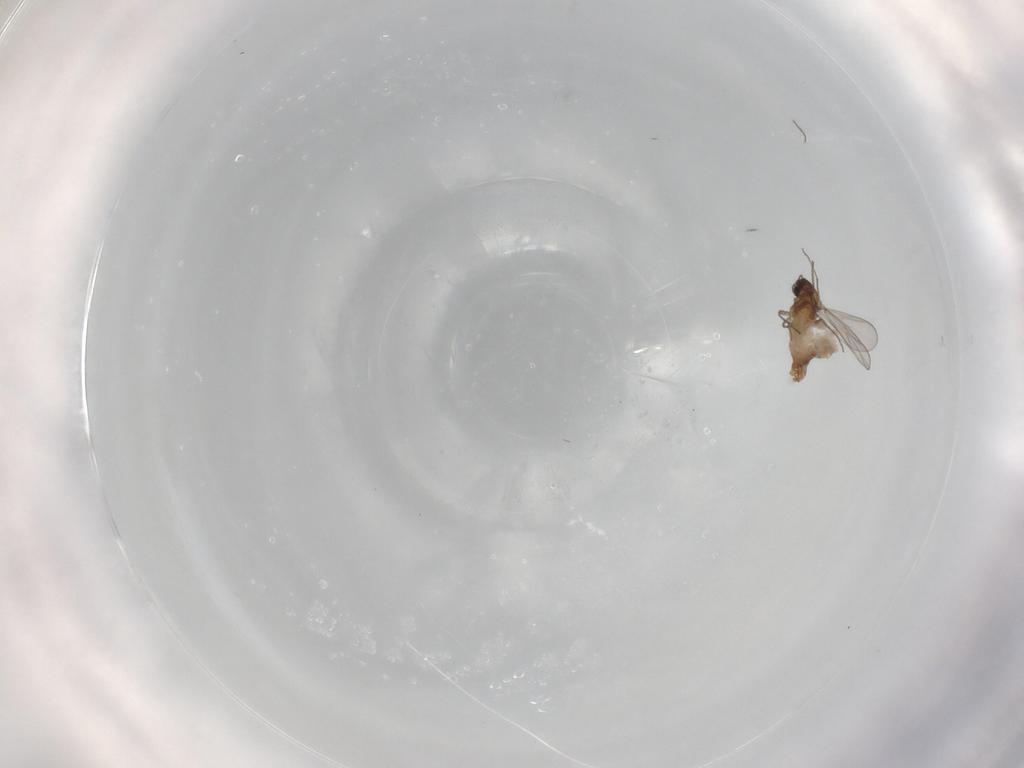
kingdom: Animalia
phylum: Arthropoda
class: Insecta
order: Diptera
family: Chironomidae
